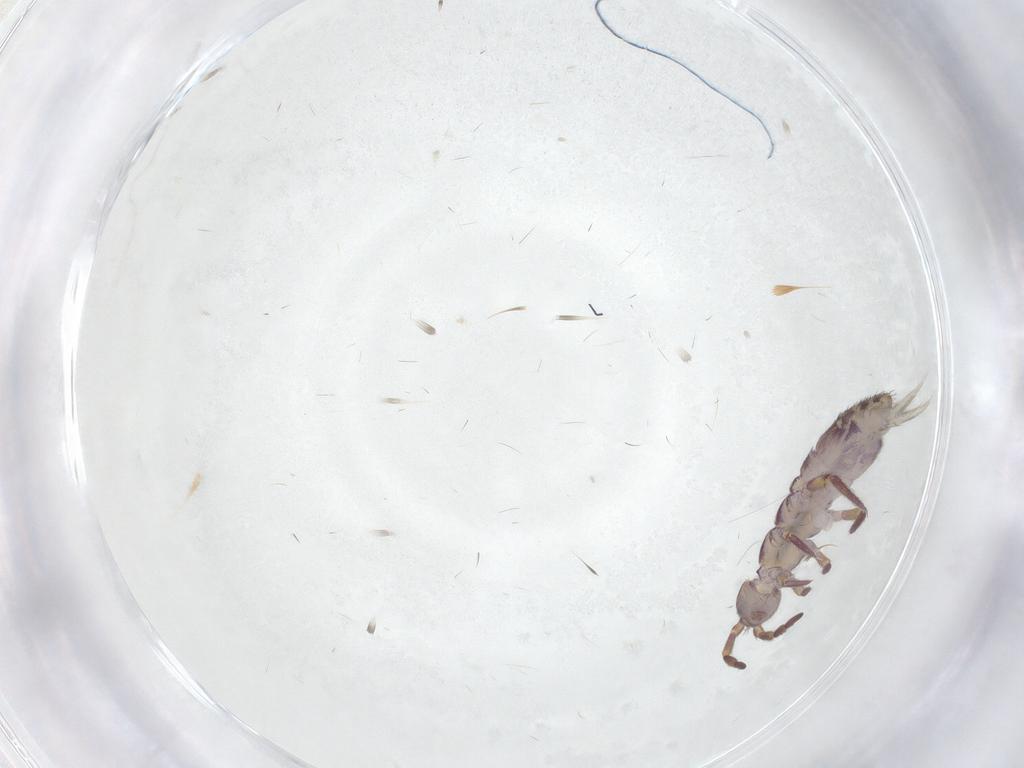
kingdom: Animalia
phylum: Arthropoda
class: Collembola
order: Entomobryomorpha
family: Isotomidae
